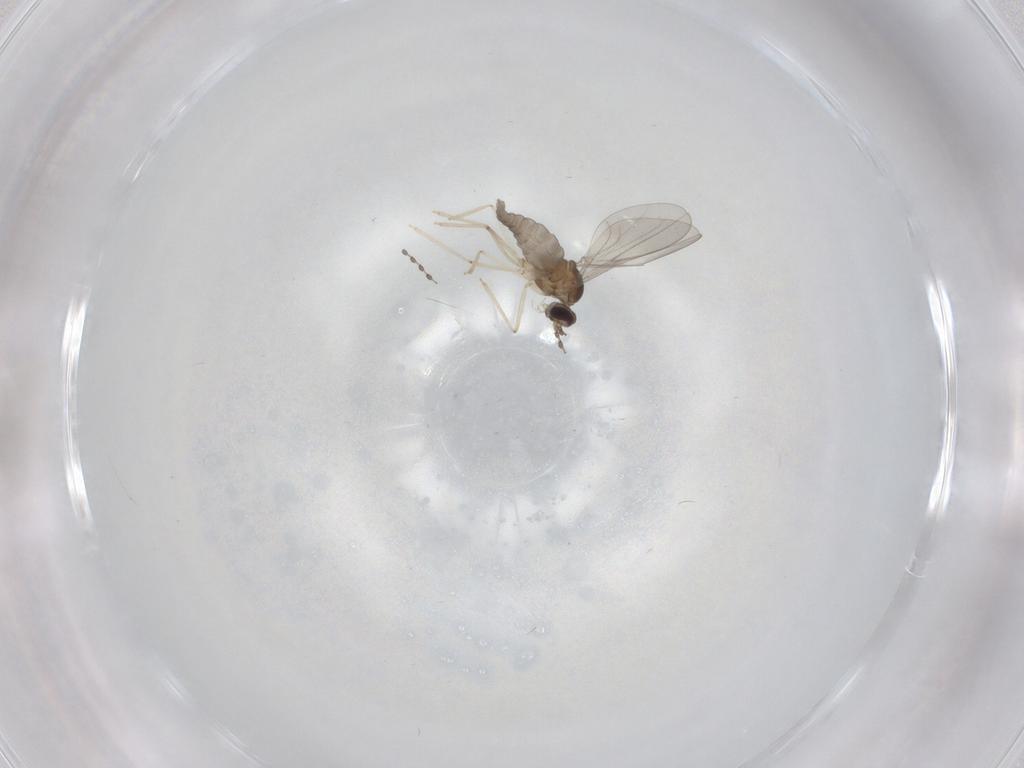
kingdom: Animalia
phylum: Arthropoda
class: Insecta
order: Diptera
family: Cecidomyiidae
